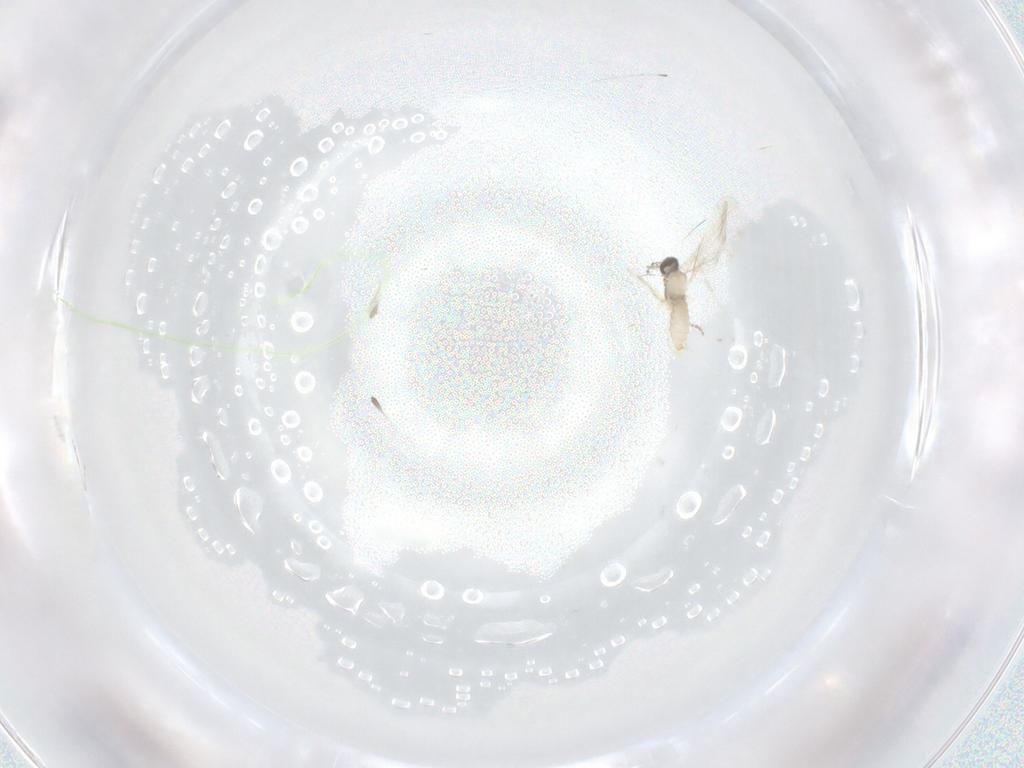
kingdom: Animalia
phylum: Arthropoda
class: Insecta
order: Diptera
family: Cecidomyiidae
